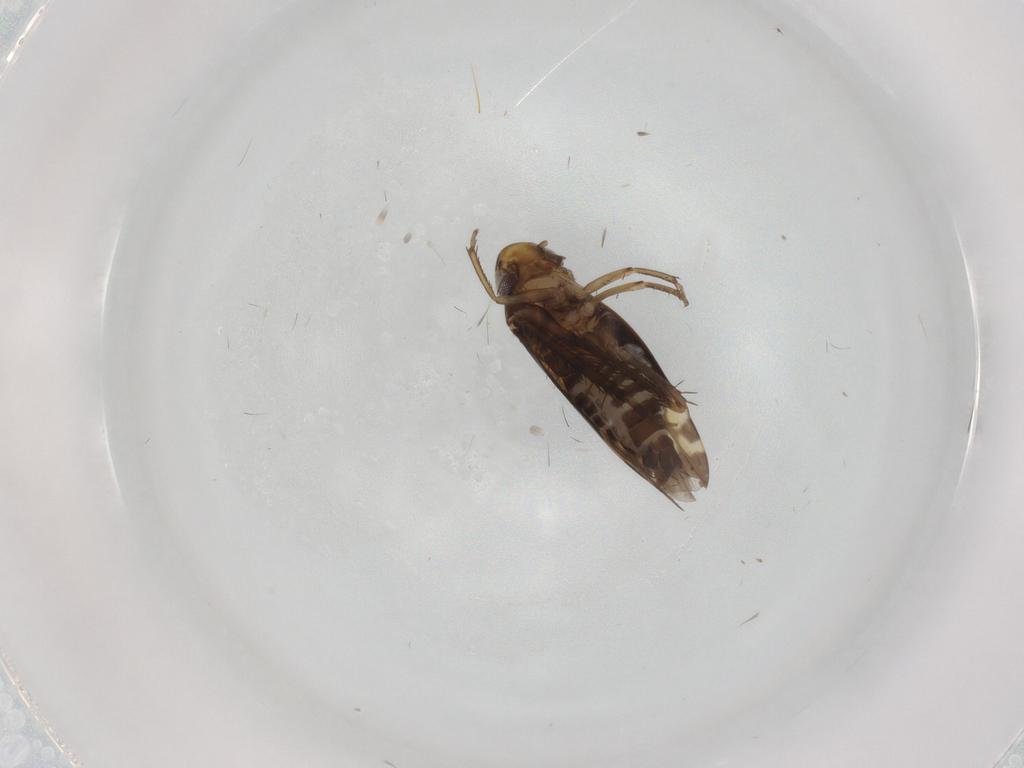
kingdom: Animalia
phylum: Arthropoda
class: Insecta
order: Hemiptera
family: Cicadellidae
